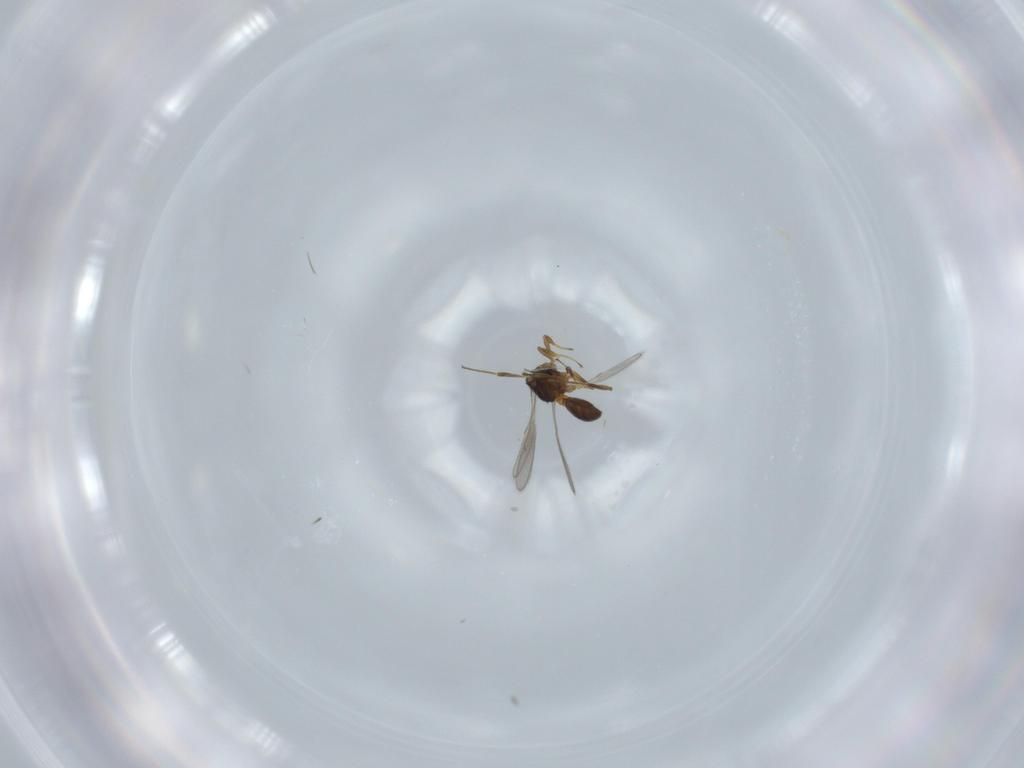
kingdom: Animalia
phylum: Arthropoda
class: Insecta
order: Hymenoptera
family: Scelionidae
